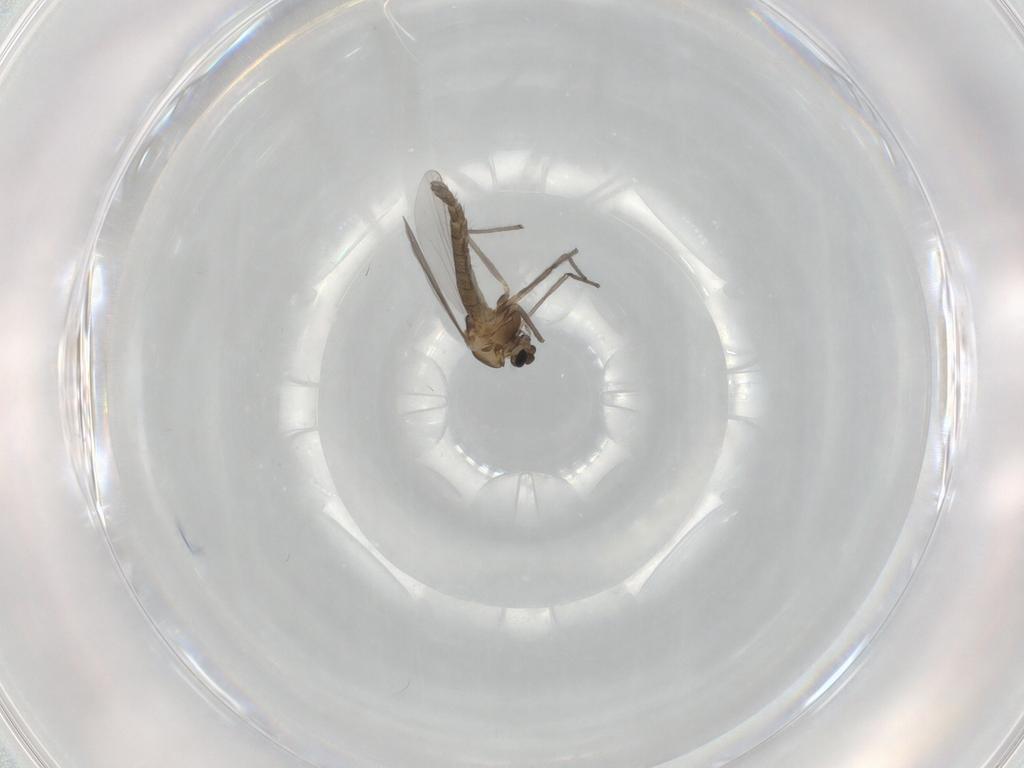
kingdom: Animalia
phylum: Arthropoda
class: Insecta
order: Diptera
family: Chironomidae
